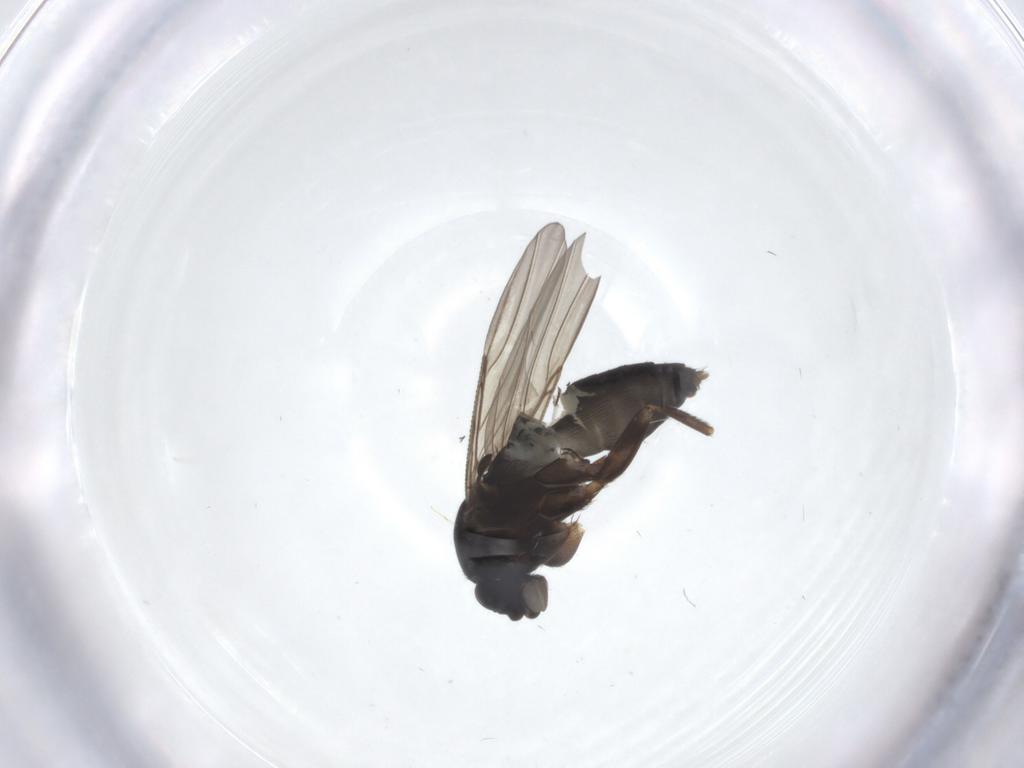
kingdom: Animalia
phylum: Arthropoda
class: Insecta
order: Diptera
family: Phoridae
